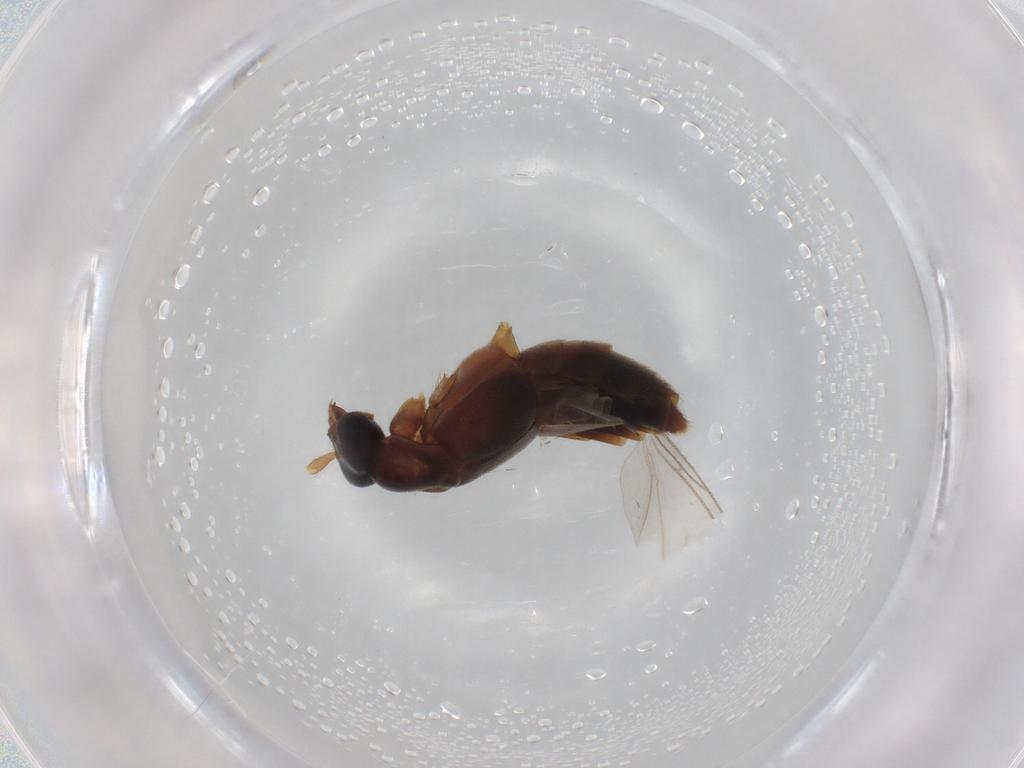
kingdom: Animalia
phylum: Arthropoda
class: Insecta
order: Coleoptera
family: Staphylinidae
